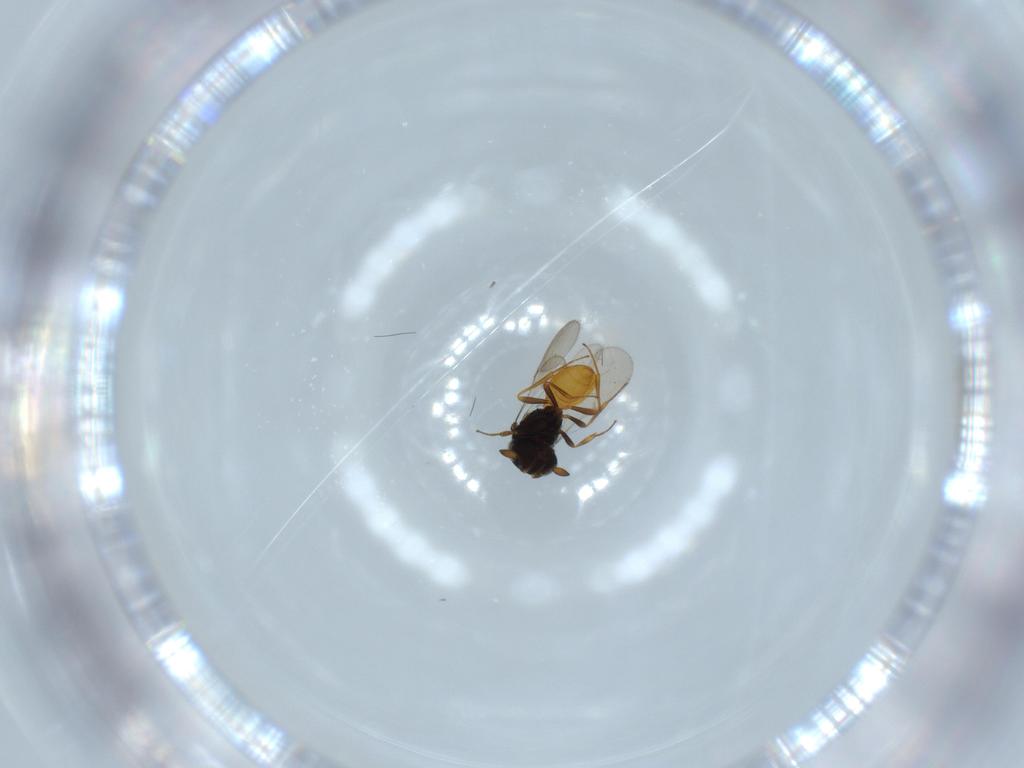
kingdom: Animalia
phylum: Arthropoda
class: Insecta
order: Hymenoptera
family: Scelionidae
